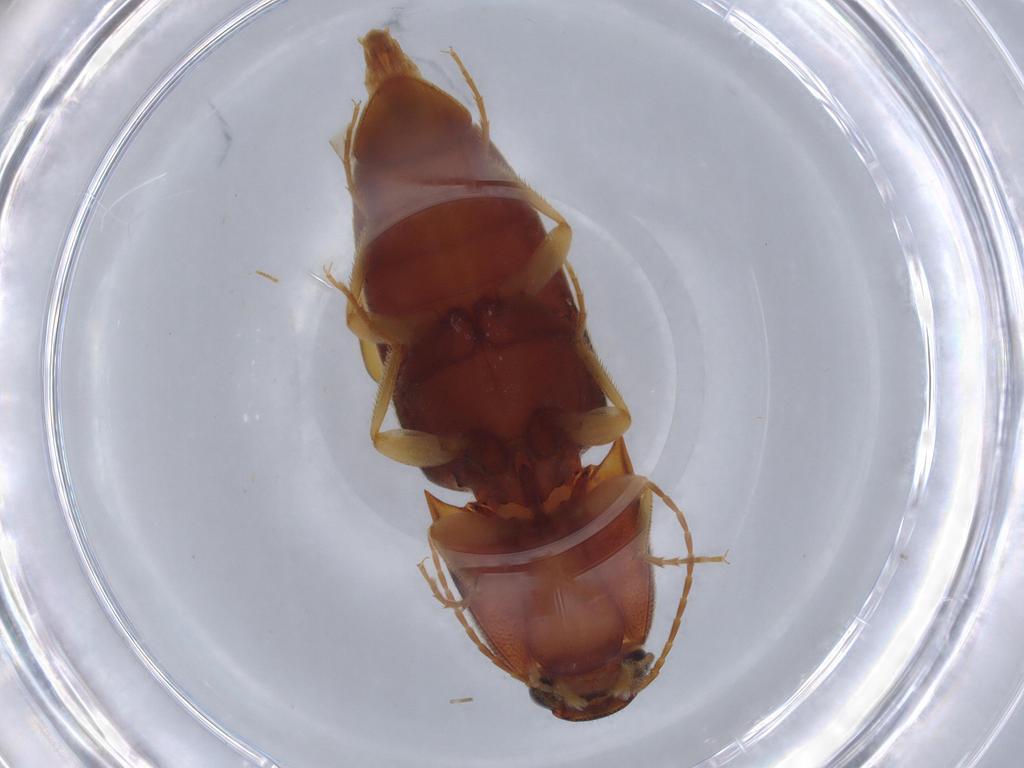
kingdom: Animalia
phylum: Arthropoda
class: Insecta
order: Coleoptera
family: Elateridae
